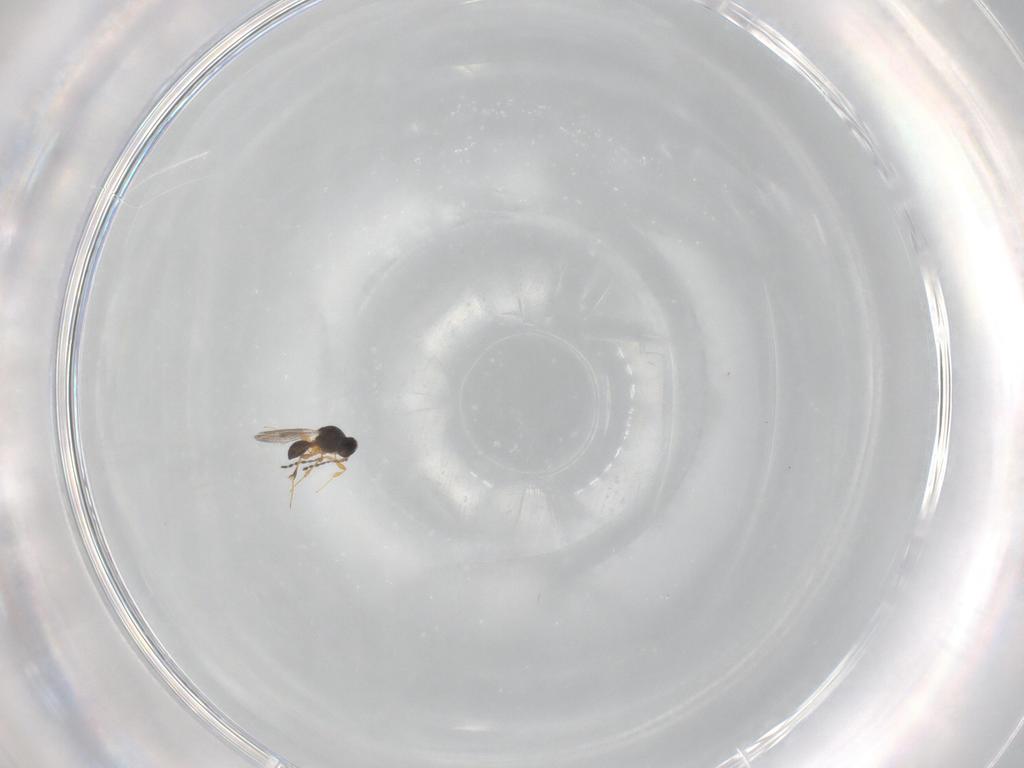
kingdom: Animalia
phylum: Arthropoda
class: Insecta
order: Hymenoptera
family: Platygastridae
